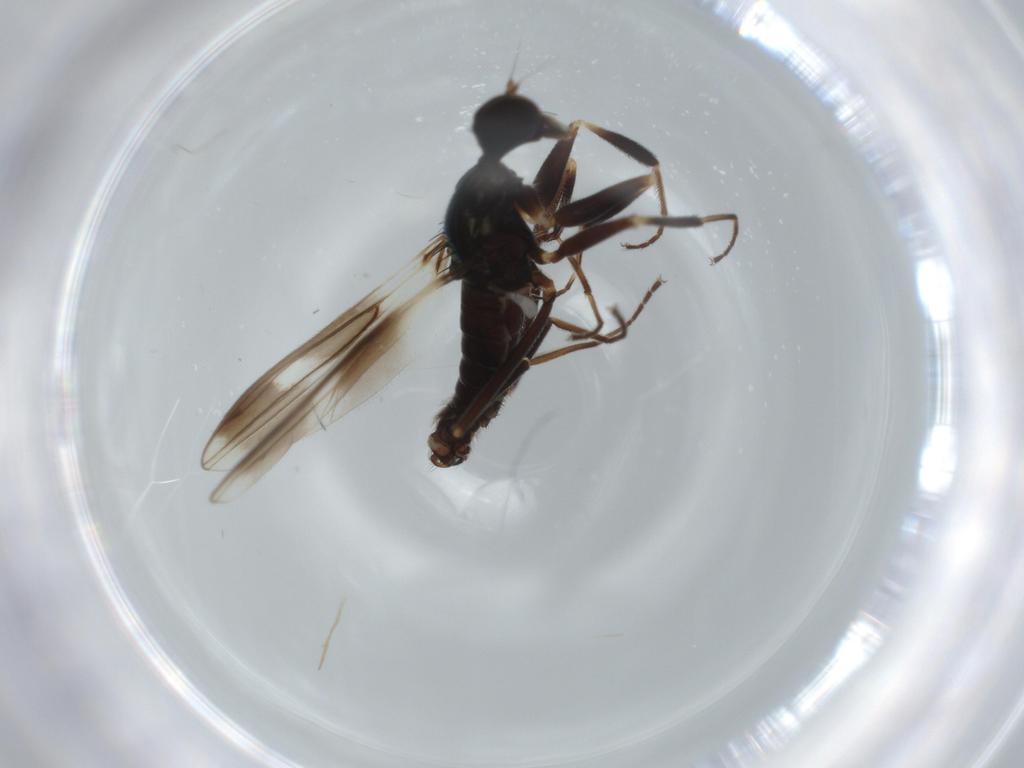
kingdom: Animalia
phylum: Arthropoda
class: Insecta
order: Diptera
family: Hybotidae
